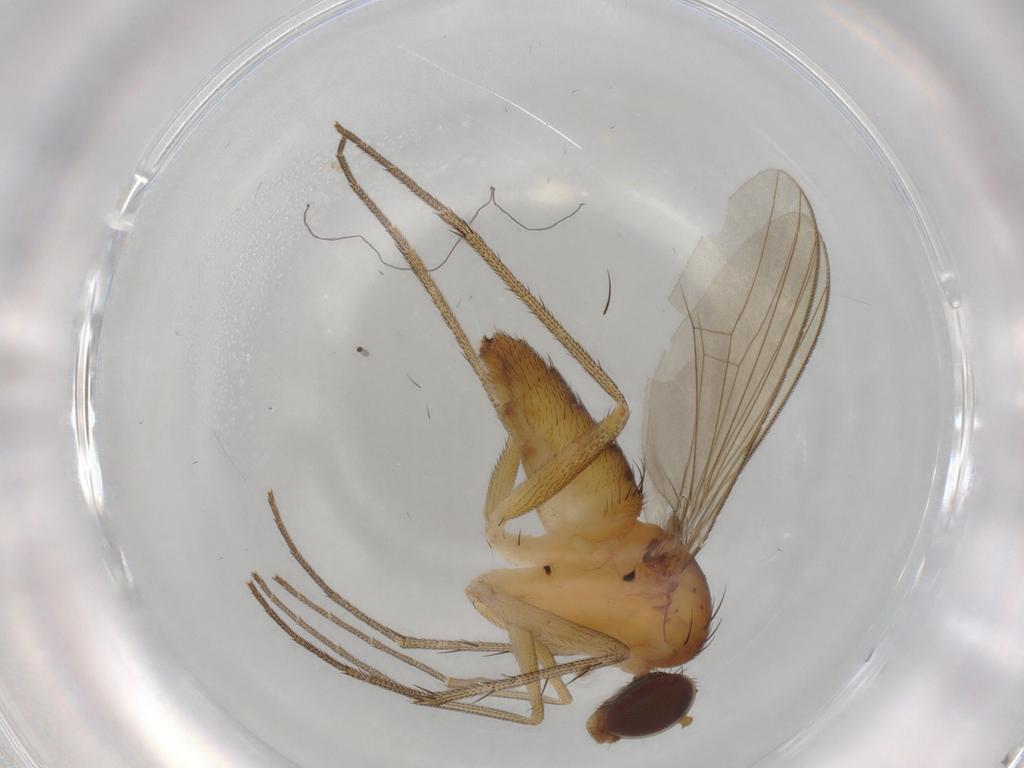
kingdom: Animalia
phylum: Arthropoda
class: Insecta
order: Diptera
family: Dolichopodidae
